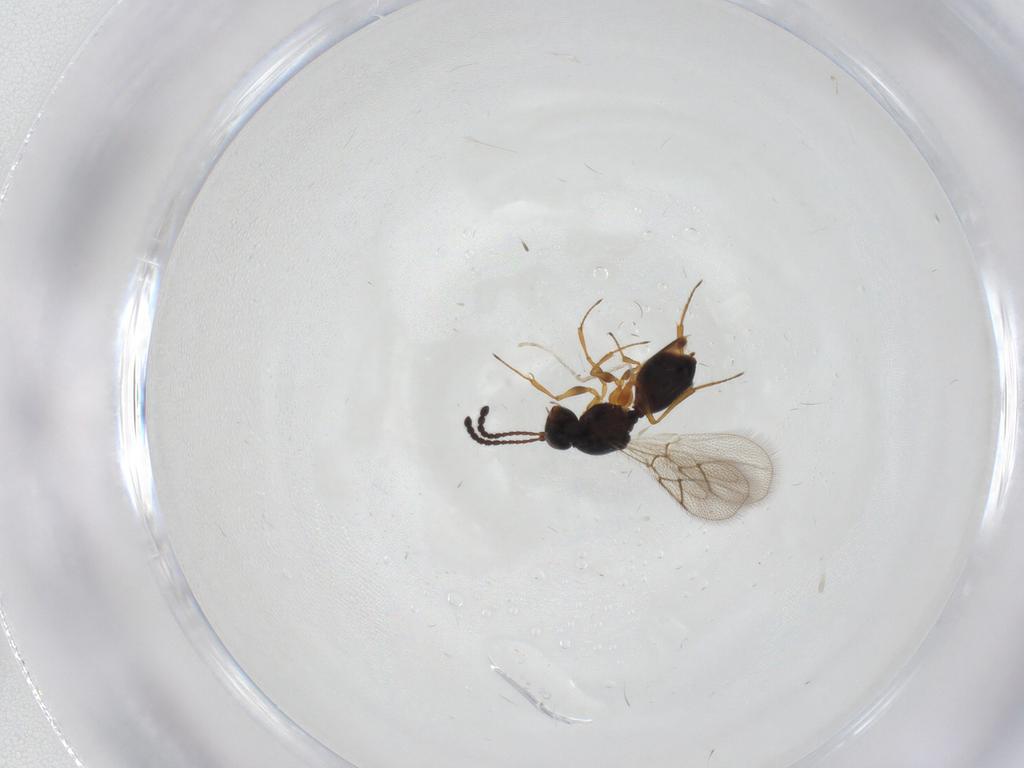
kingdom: Animalia
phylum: Arthropoda
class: Insecta
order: Hymenoptera
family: Figitidae
